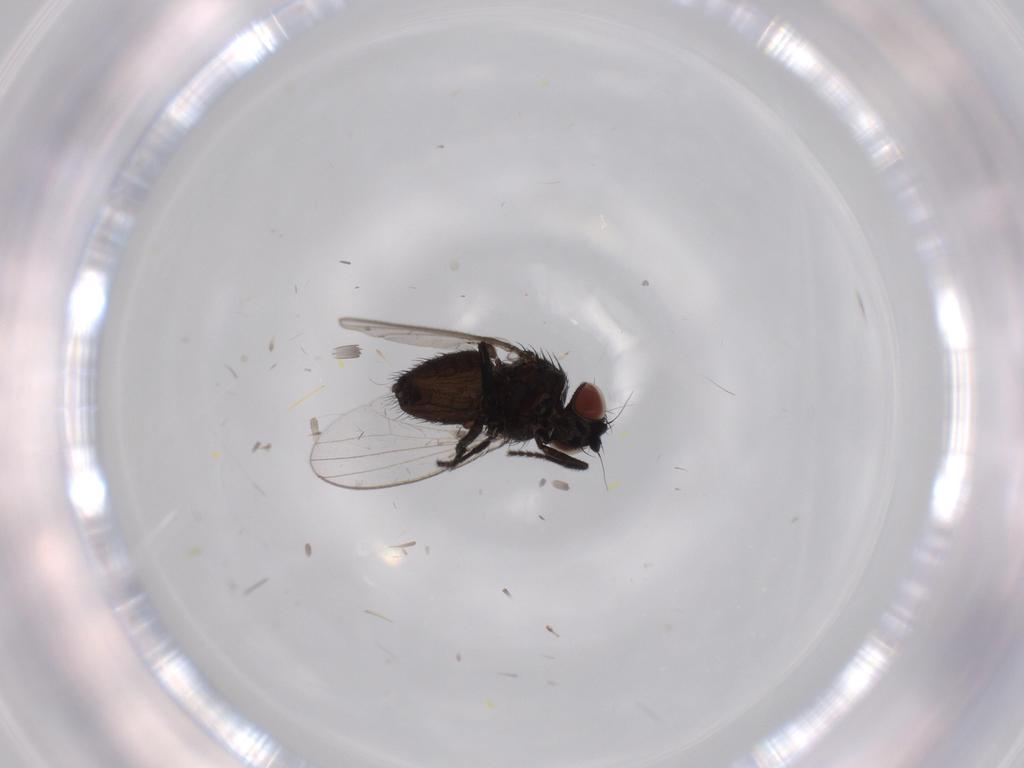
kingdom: Animalia
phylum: Arthropoda
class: Insecta
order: Diptera
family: Milichiidae
